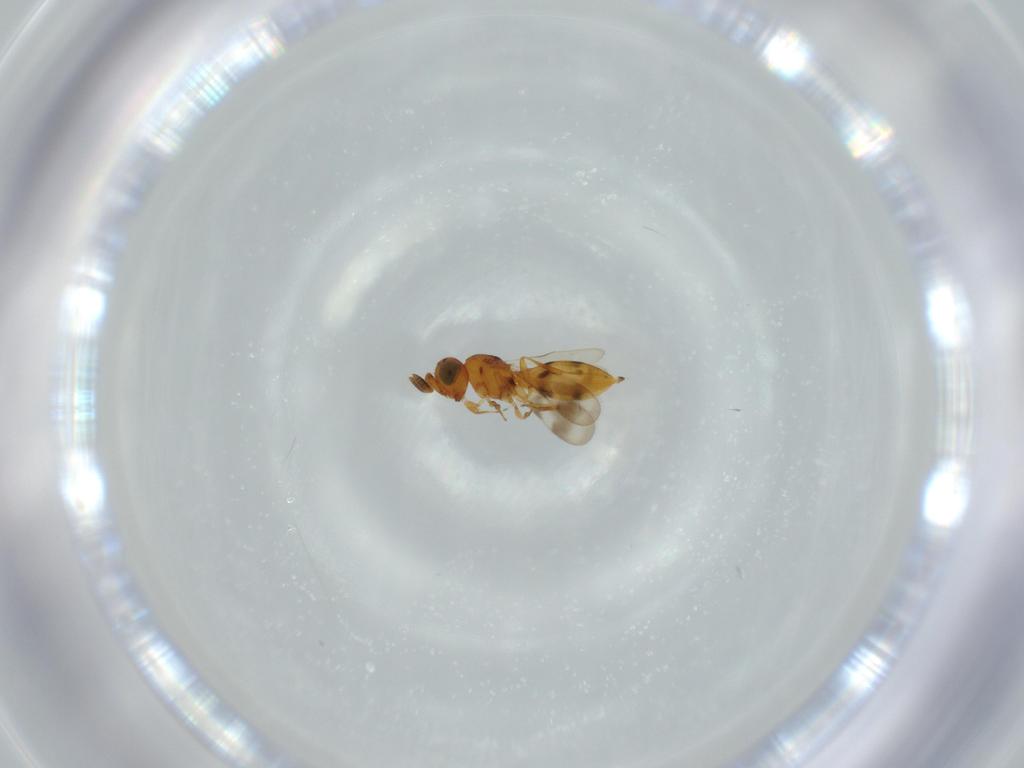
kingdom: Animalia
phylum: Arthropoda
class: Insecta
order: Hymenoptera
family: Scelionidae
